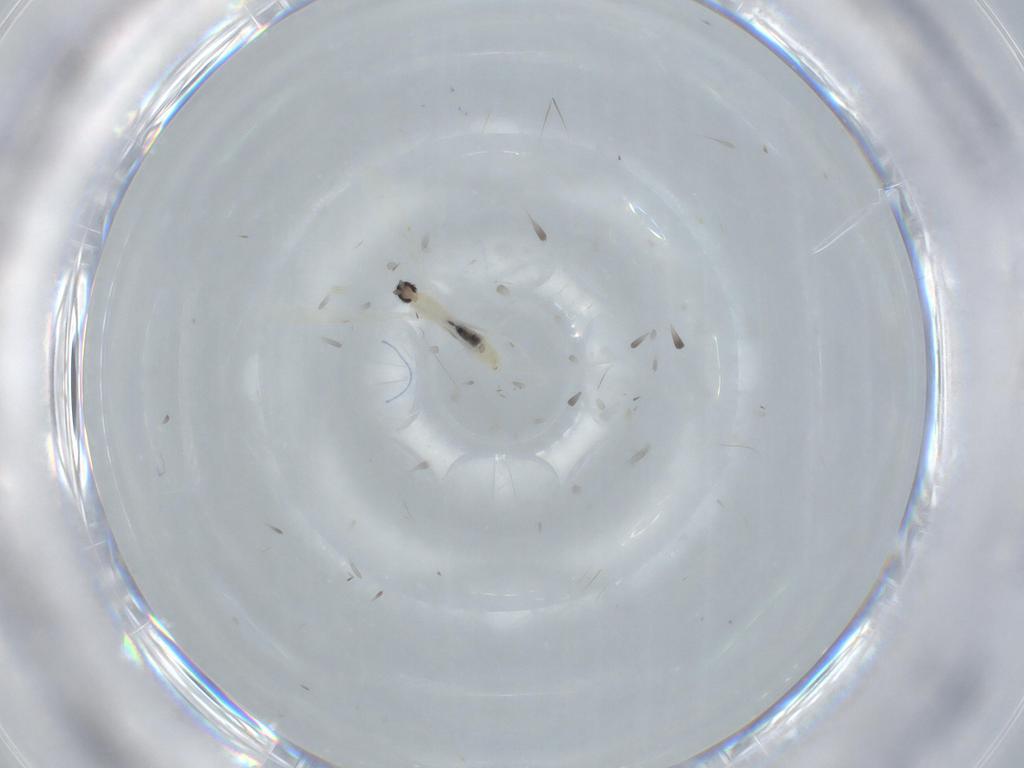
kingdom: Animalia
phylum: Arthropoda
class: Insecta
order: Diptera
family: Cecidomyiidae
